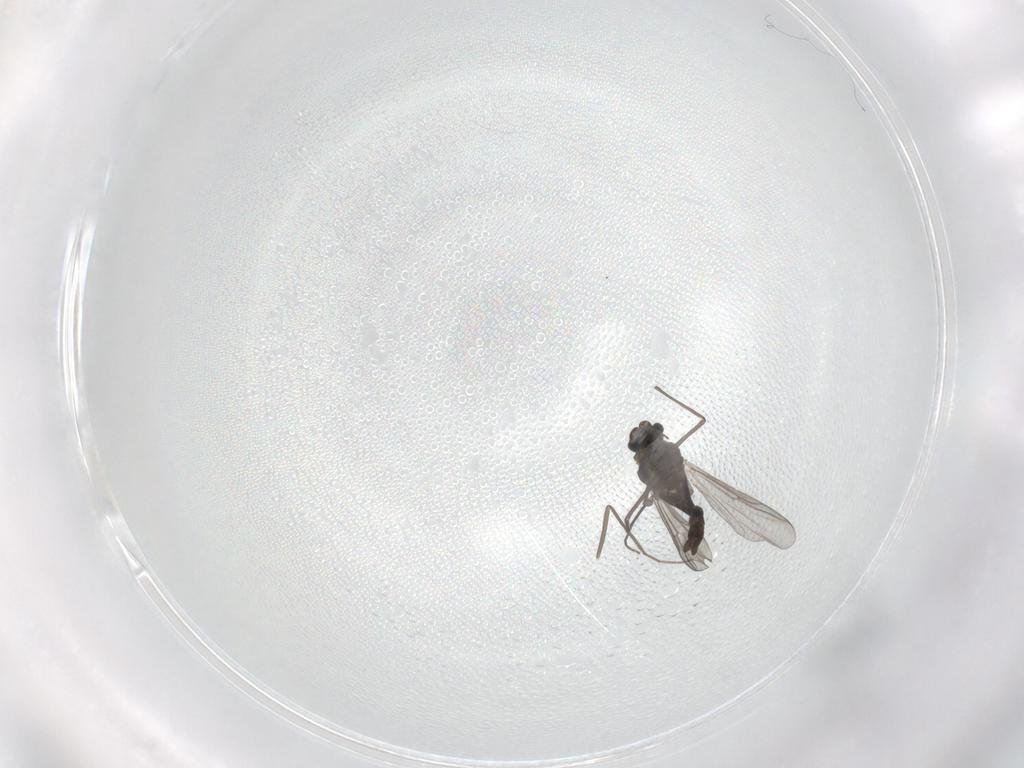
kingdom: Animalia
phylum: Arthropoda
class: Insecta
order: Diptera
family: Chironomidae
